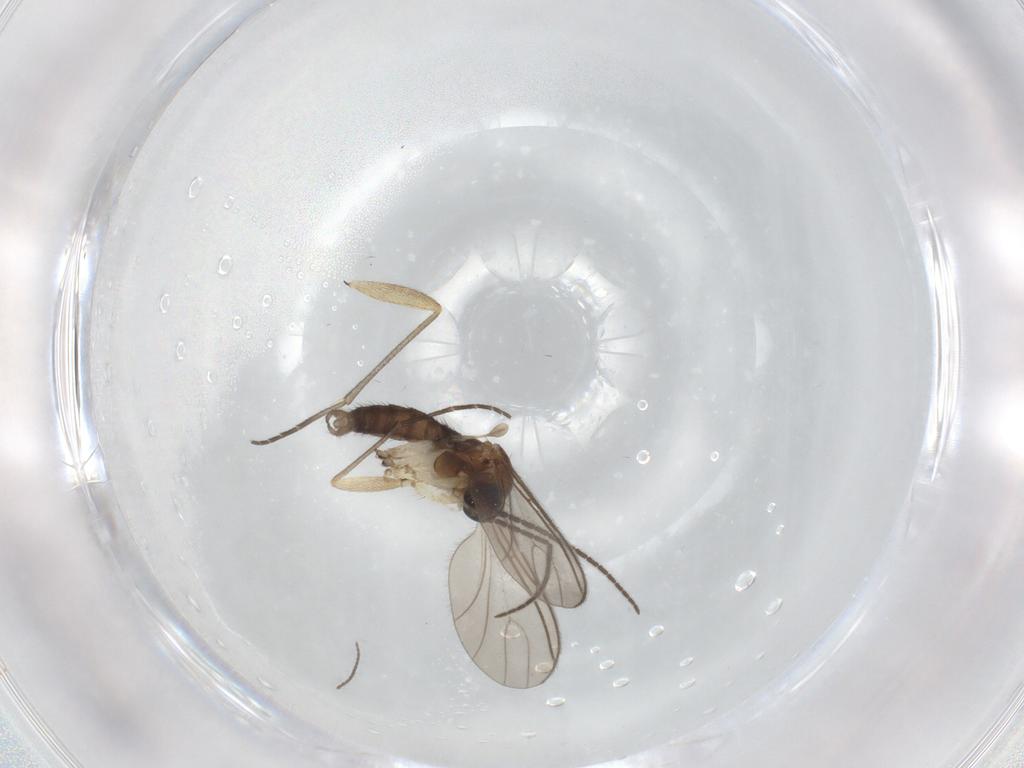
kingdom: Animalia
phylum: Arthropoda
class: Insecta
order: Diptera
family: Sciaridae
